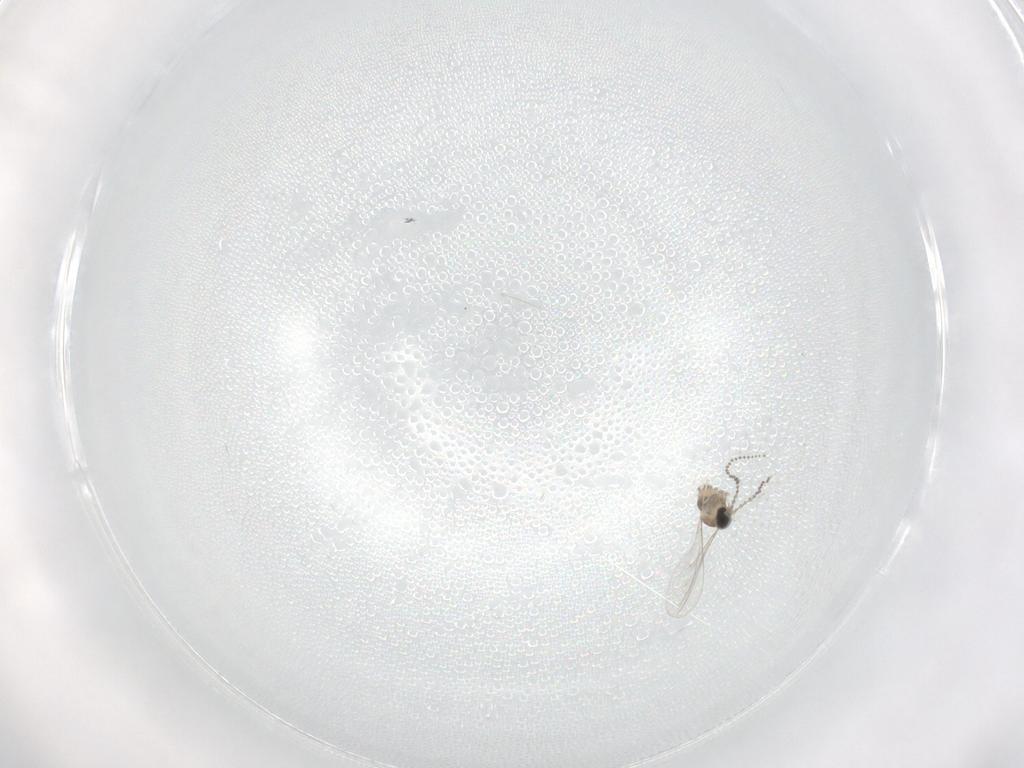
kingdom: Animalia
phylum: Arthropoda
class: Insecta
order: Diptera
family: Cecidomyiidae
